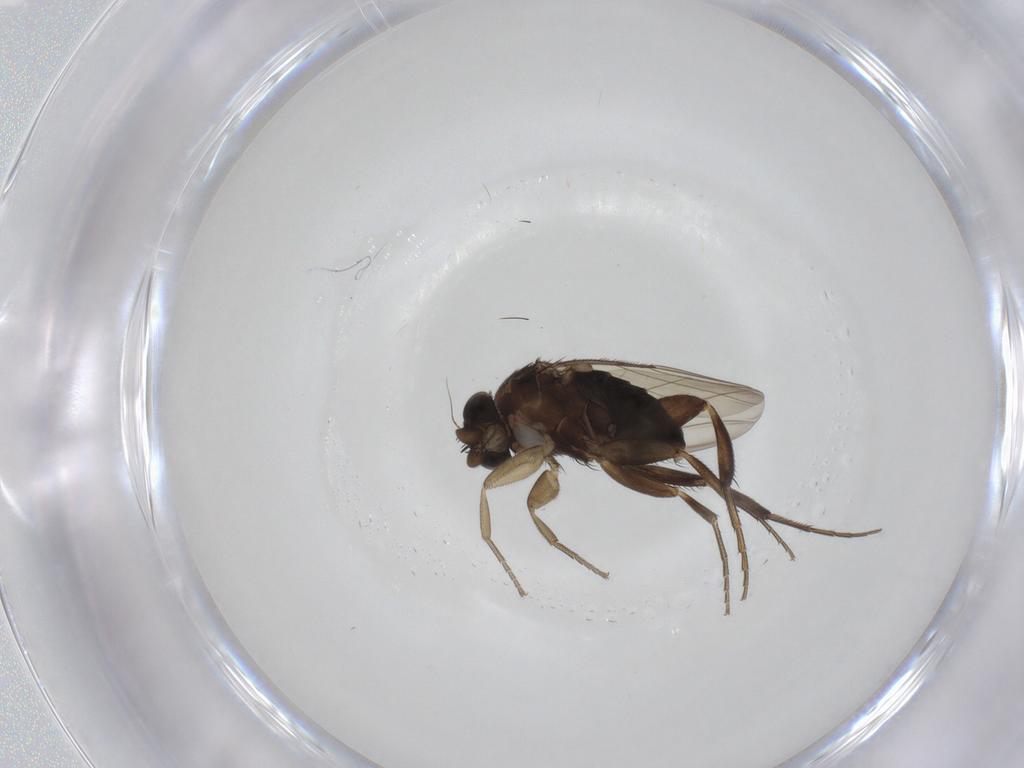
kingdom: Animalia
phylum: Arthropoda
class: Insecta
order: Diptera
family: Phoridae
